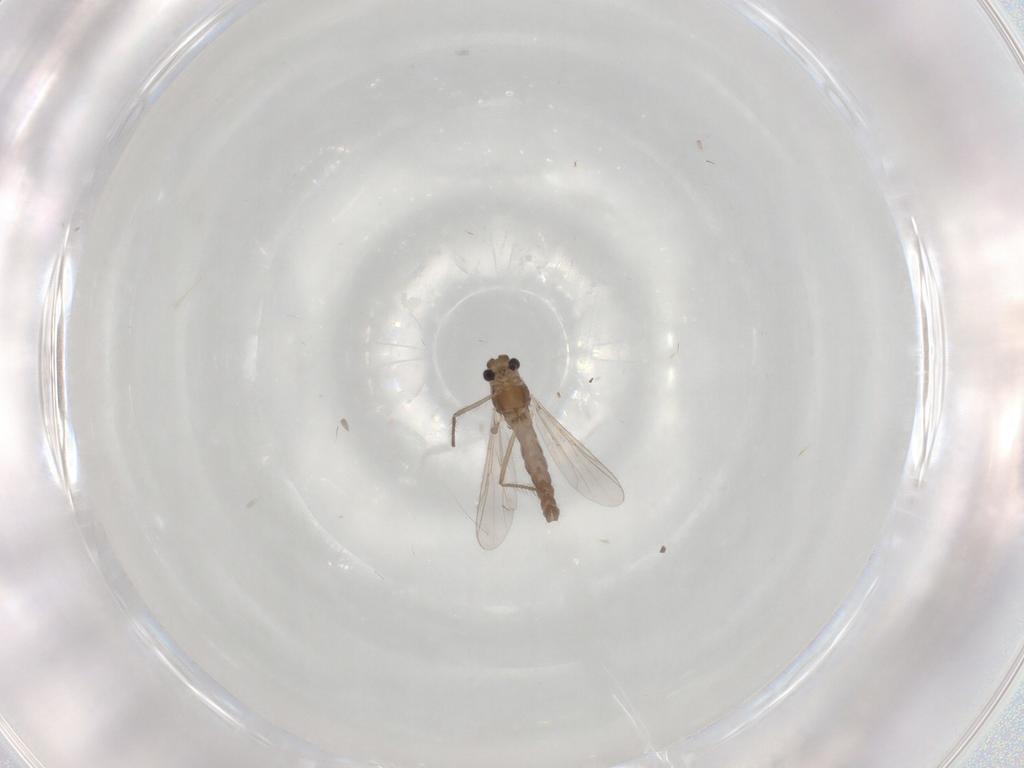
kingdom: Animalia
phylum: Arthropoda
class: Insecta
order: Diptera
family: Chironomidae
